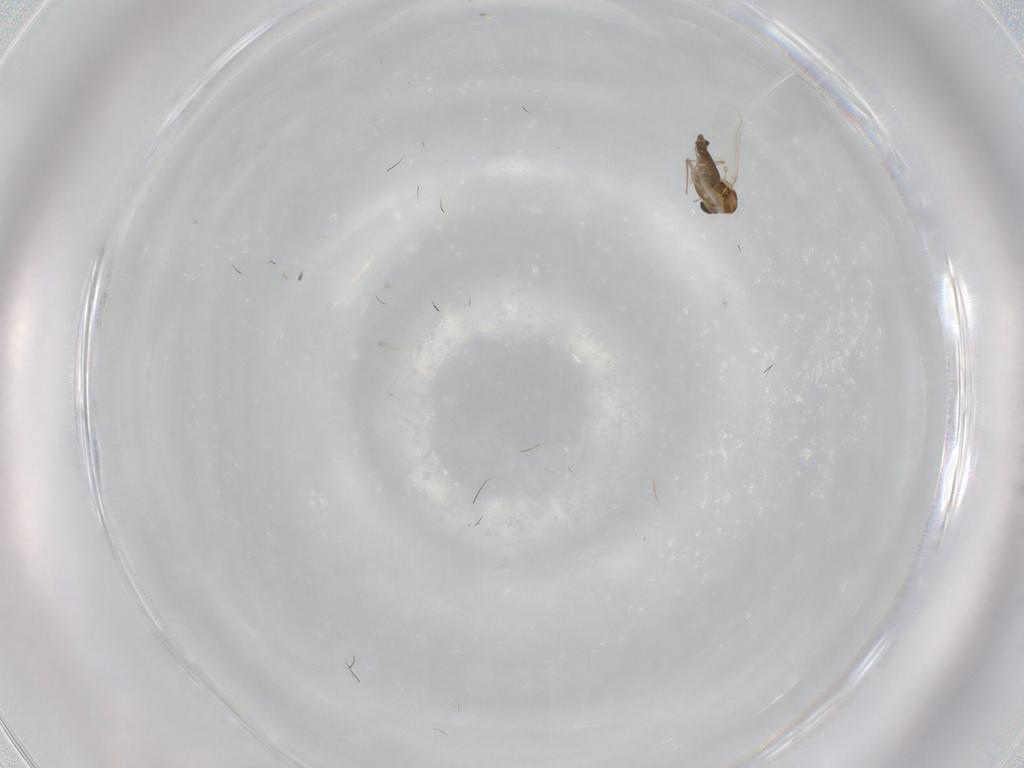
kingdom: Animalia
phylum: Arthropoda
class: Insecta
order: Diptera
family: Chironomidae
